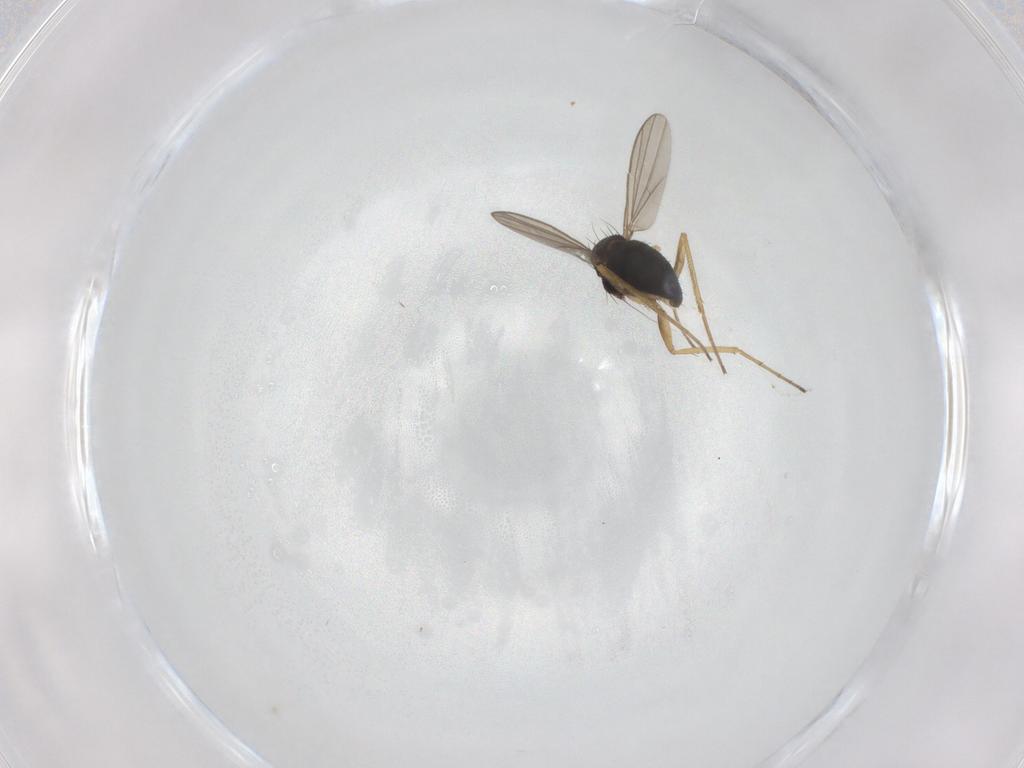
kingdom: Animalia
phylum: Arthropoda
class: Insecta
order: Diptera
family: Dolichopodidae
